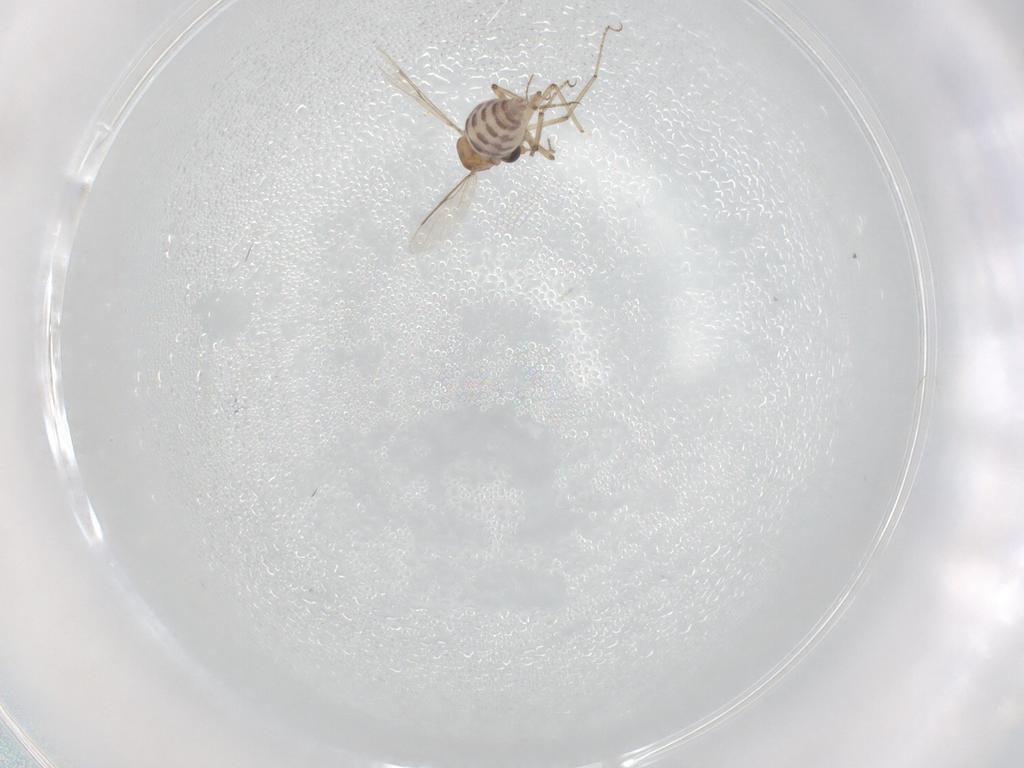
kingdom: Animalia
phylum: Arthropoda
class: Insecta
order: Diptera
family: Ceratopogonidae
